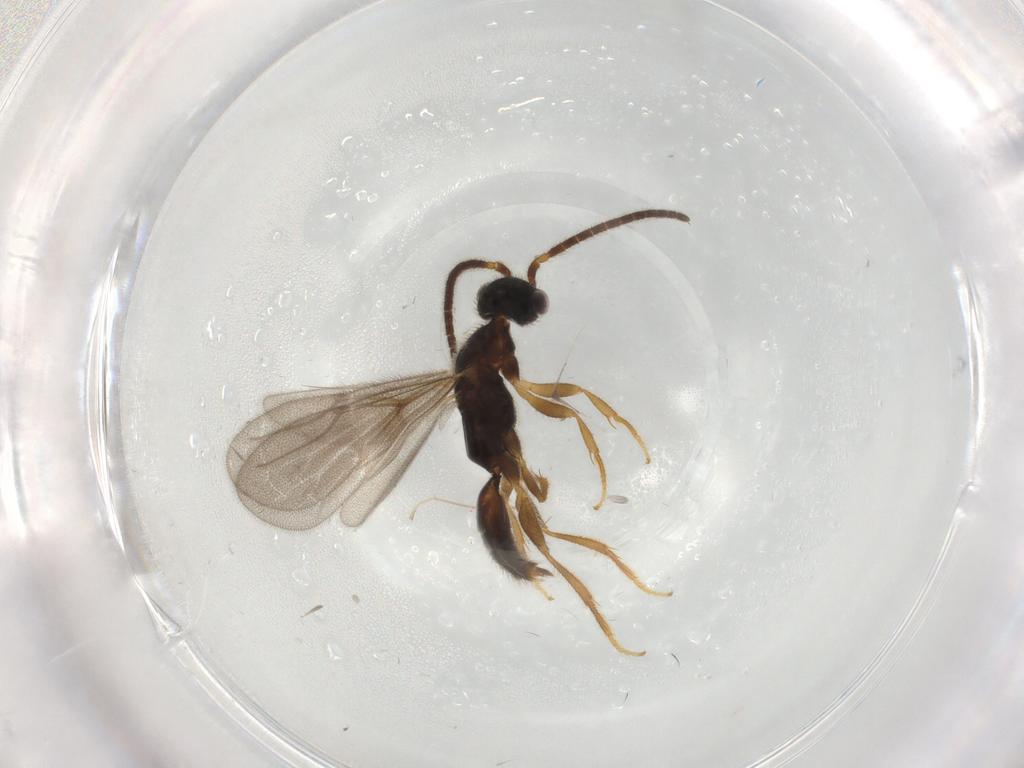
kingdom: Animalia
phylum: Arthropoda
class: Insecta
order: Hymenoptera
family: Bethylidae
